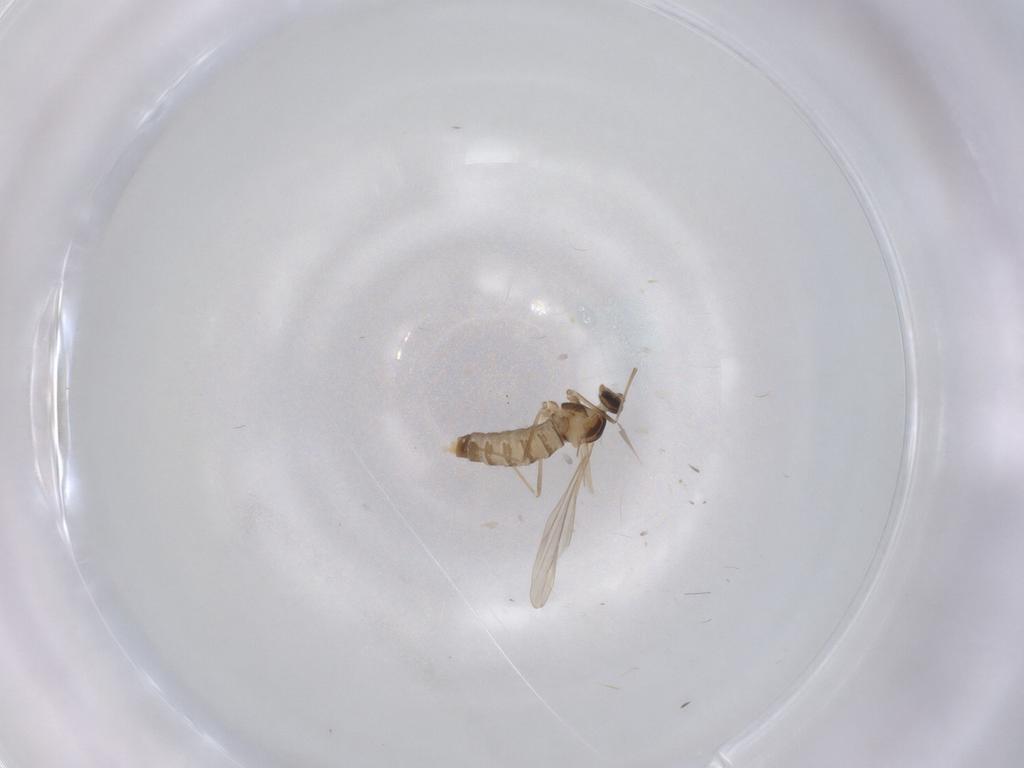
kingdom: Animalia
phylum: Arthropoda
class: Insecta
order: Diptera
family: Cecidomyiidae
